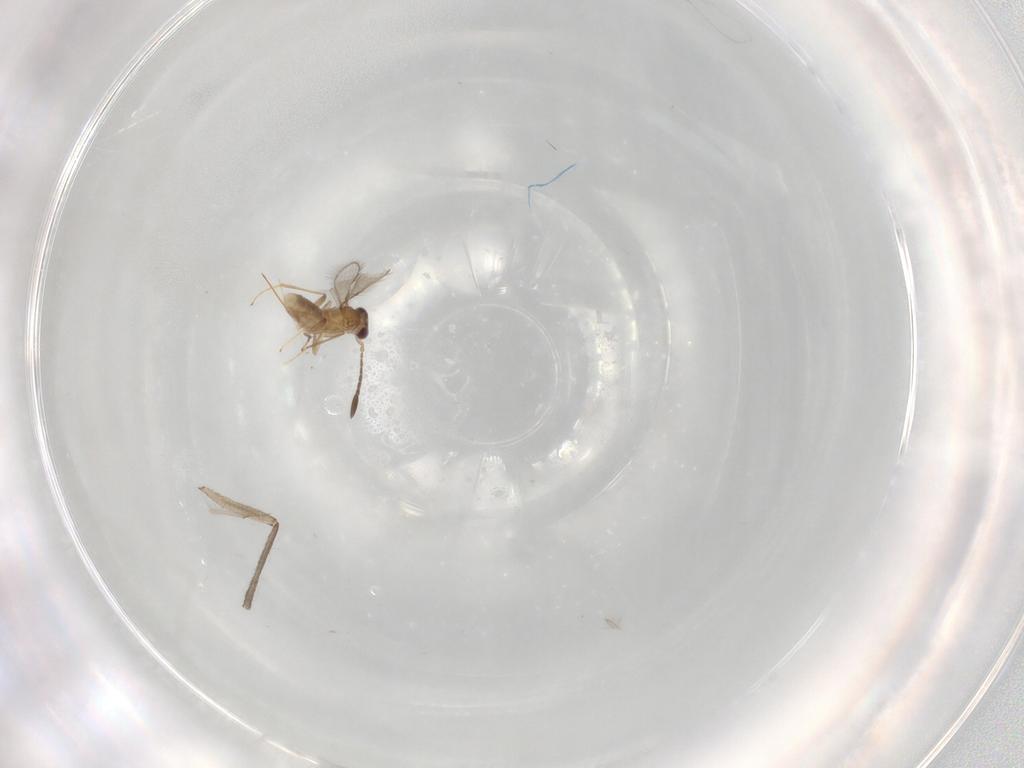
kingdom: Animalia
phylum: Arthropoda
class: Insecta
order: Hymenoptera
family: Mymaridae
